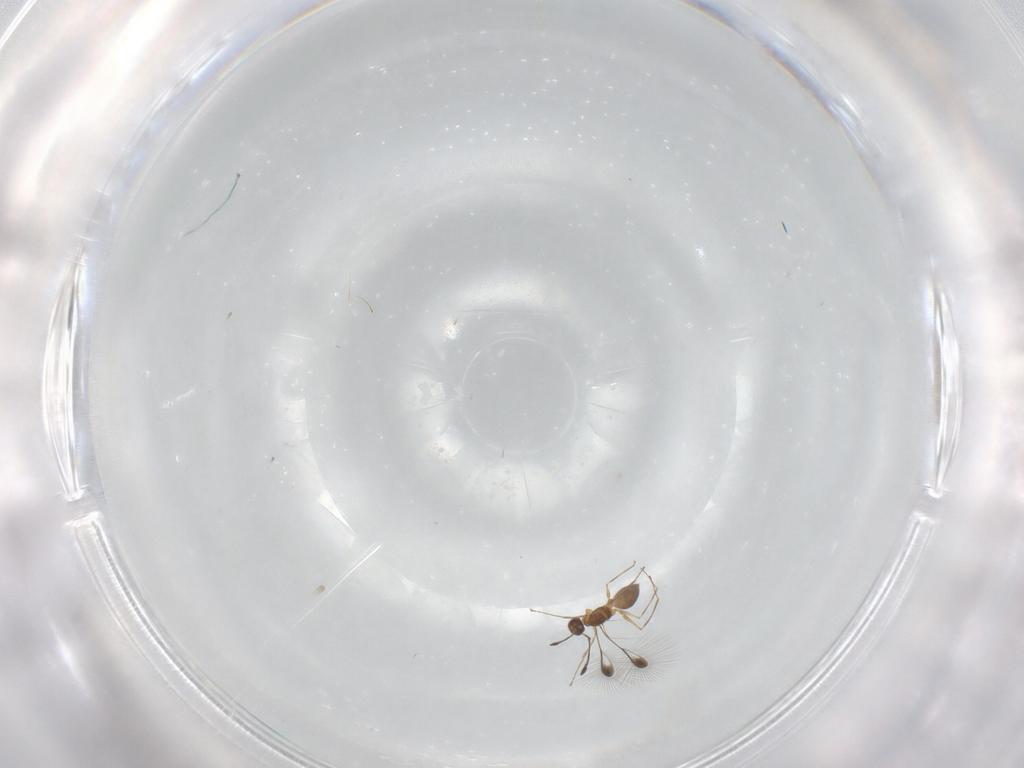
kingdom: Animalia
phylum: Arthropoda
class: Insecta
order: Hymenoptera
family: Mymaridae
